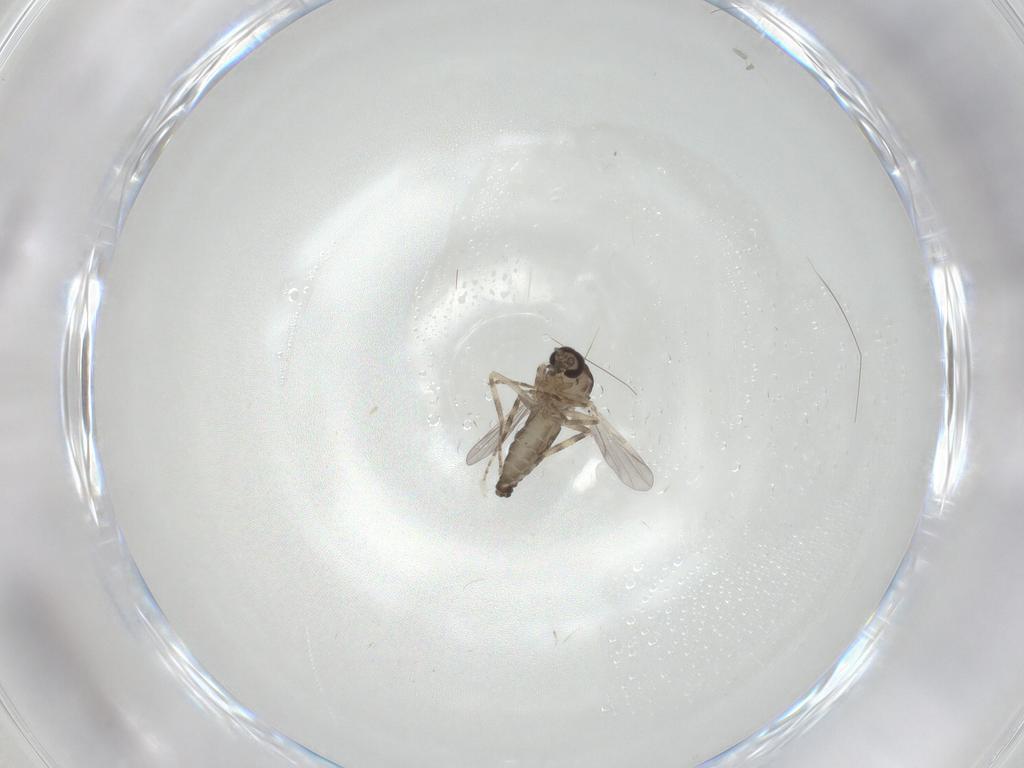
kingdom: Animalia
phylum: Arthropoda
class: Insecta
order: Diptera
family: Ceratopogonidae
